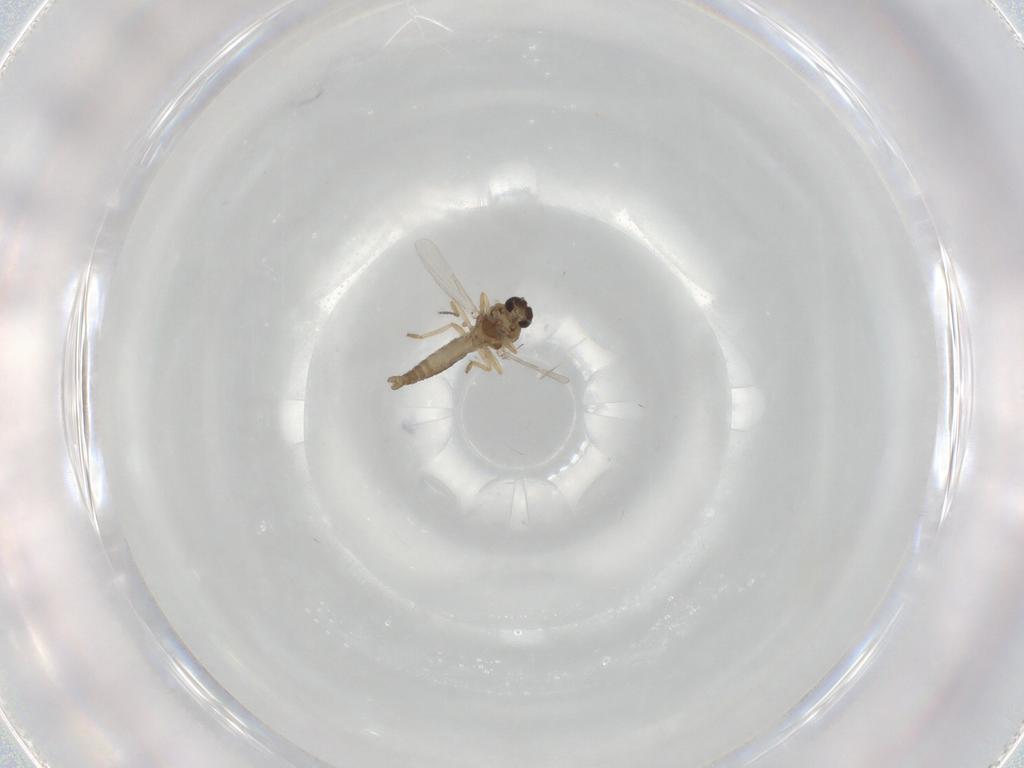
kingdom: Animalia
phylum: Arthropoda
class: Insecta
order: Diptera
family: Ceratopogonidae
